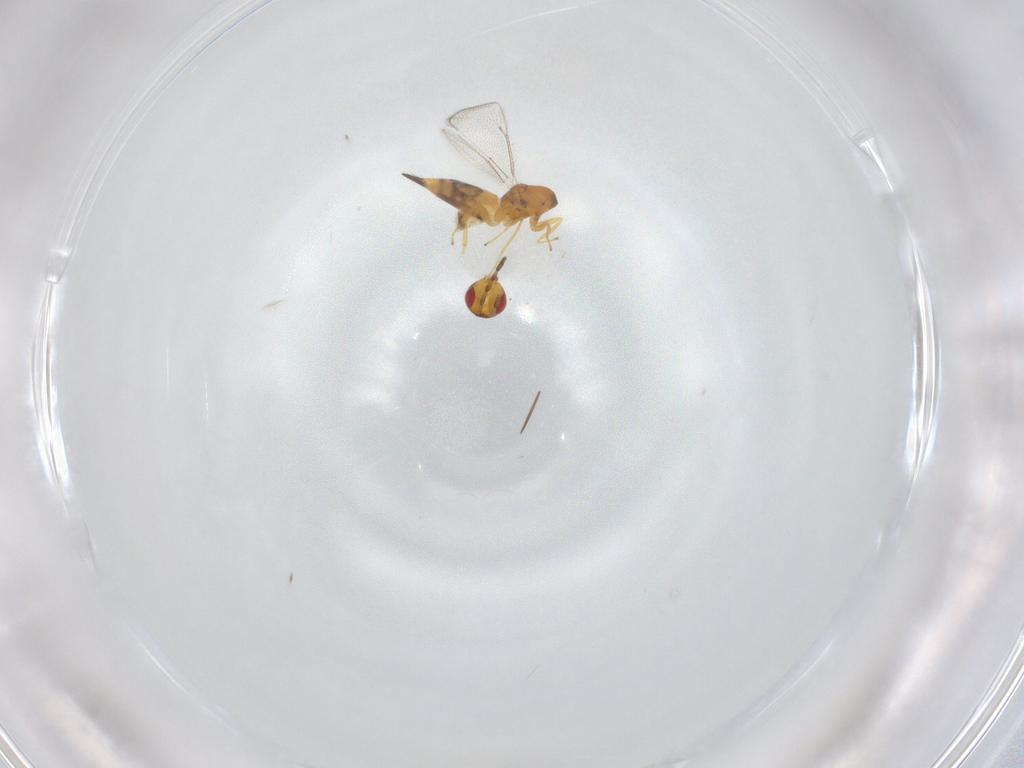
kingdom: Animalia
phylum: Arthropoda
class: Insecta
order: Hymenoptera
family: Eulophidae
